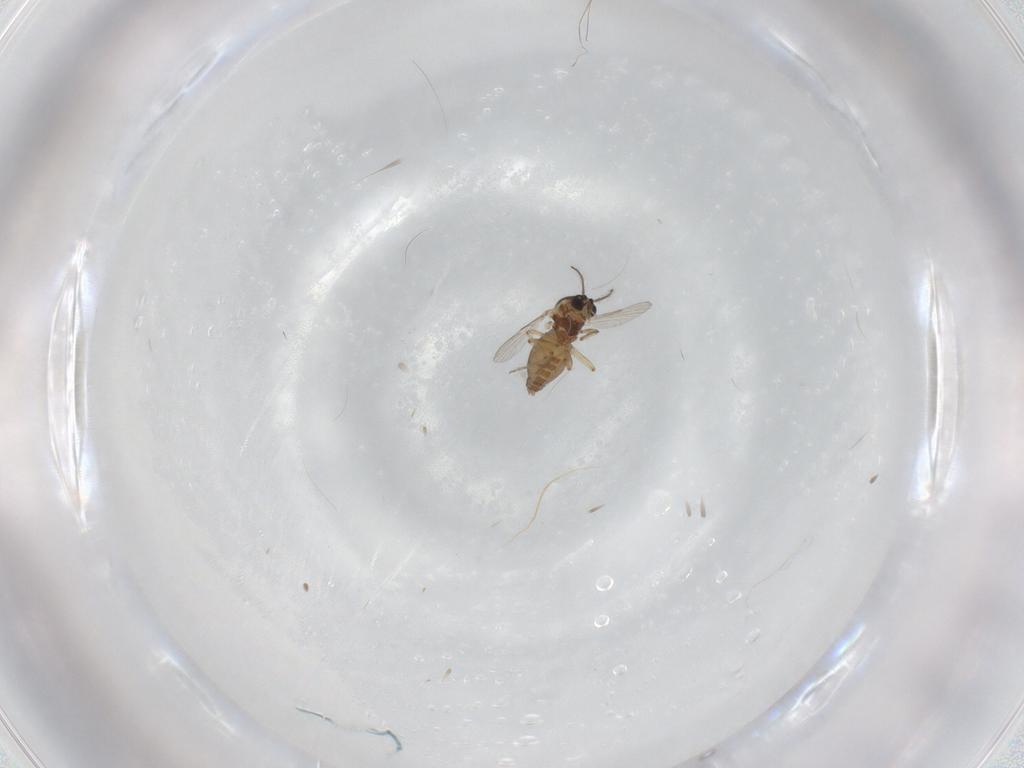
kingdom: Animalia
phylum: Arthropoda
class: Insecta
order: Diptera
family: Ceratopogonidae
